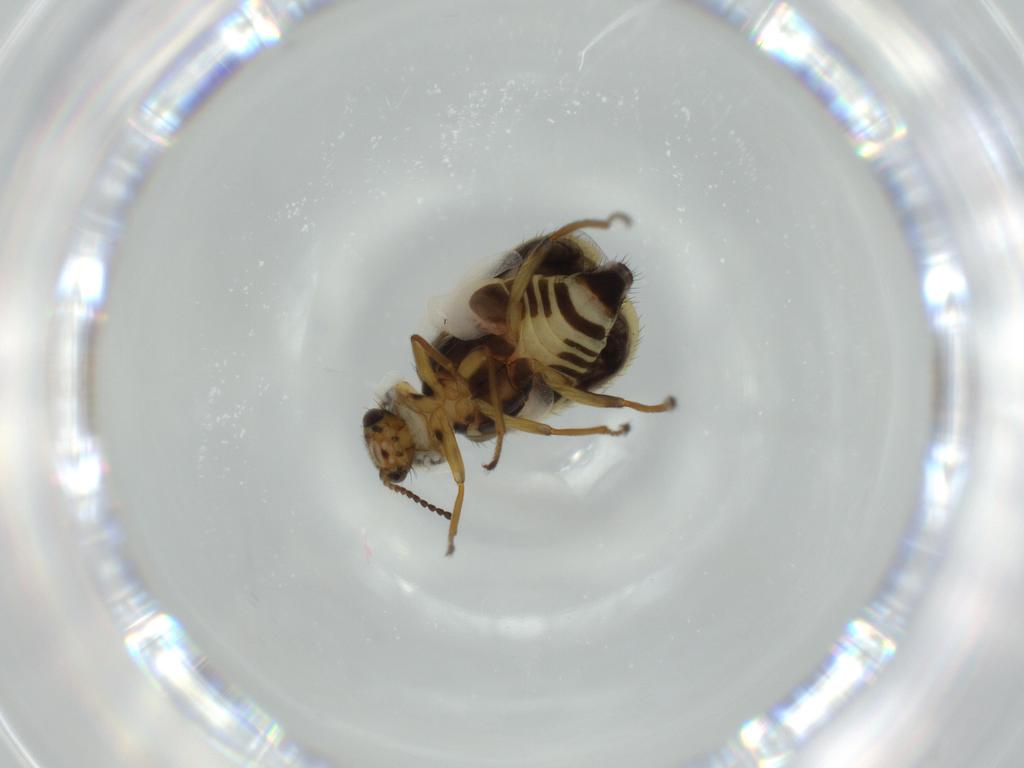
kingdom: Animalia
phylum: Arthropoda
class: Insecta
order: Coleoptera
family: Melyridae
